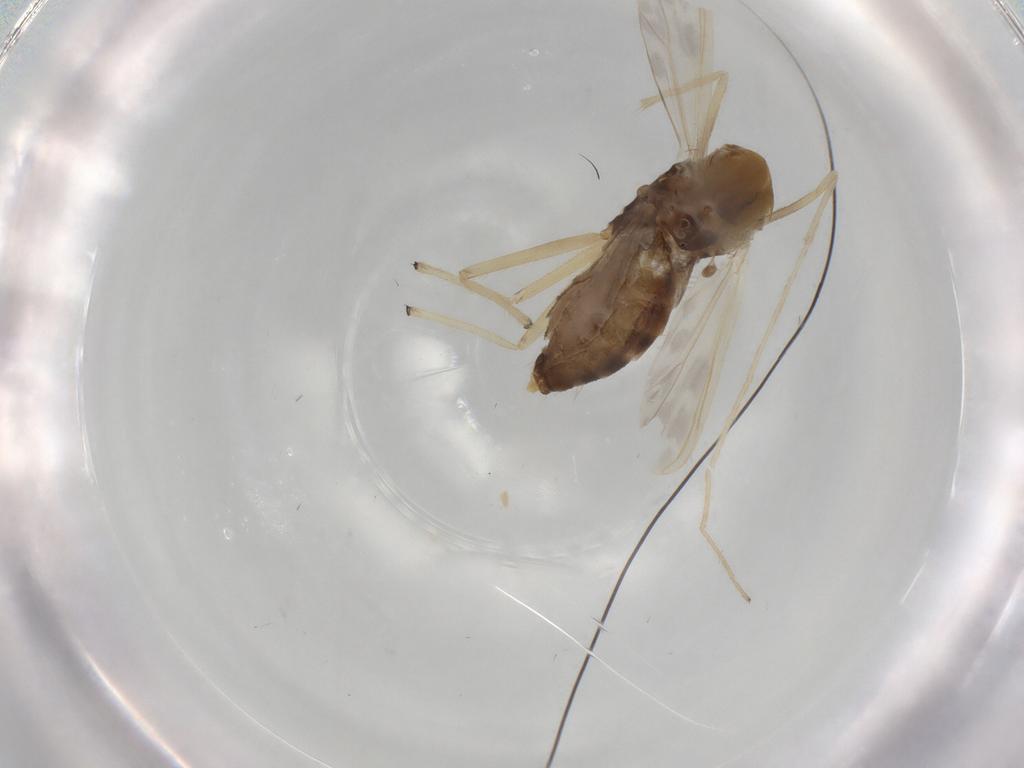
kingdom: Animalia
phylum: Arthropoda
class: Insecta
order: Diptera
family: Chironomidae
